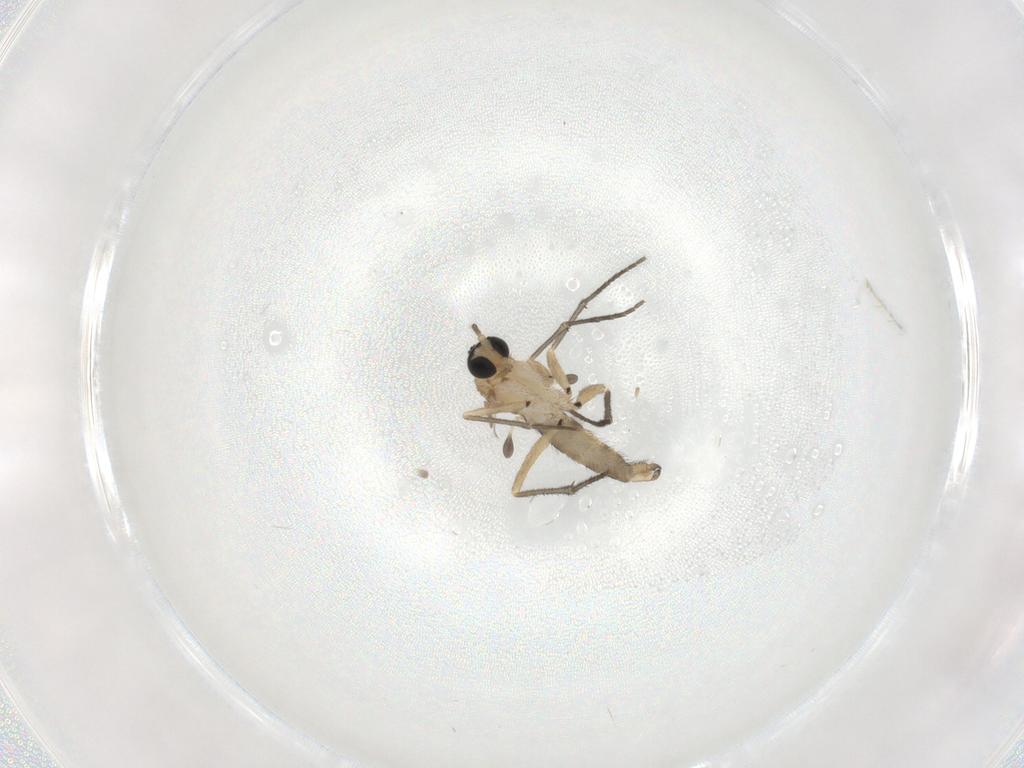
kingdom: Animalia
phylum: Arthropoda
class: Insecta
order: Diptera
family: Sciaridae
